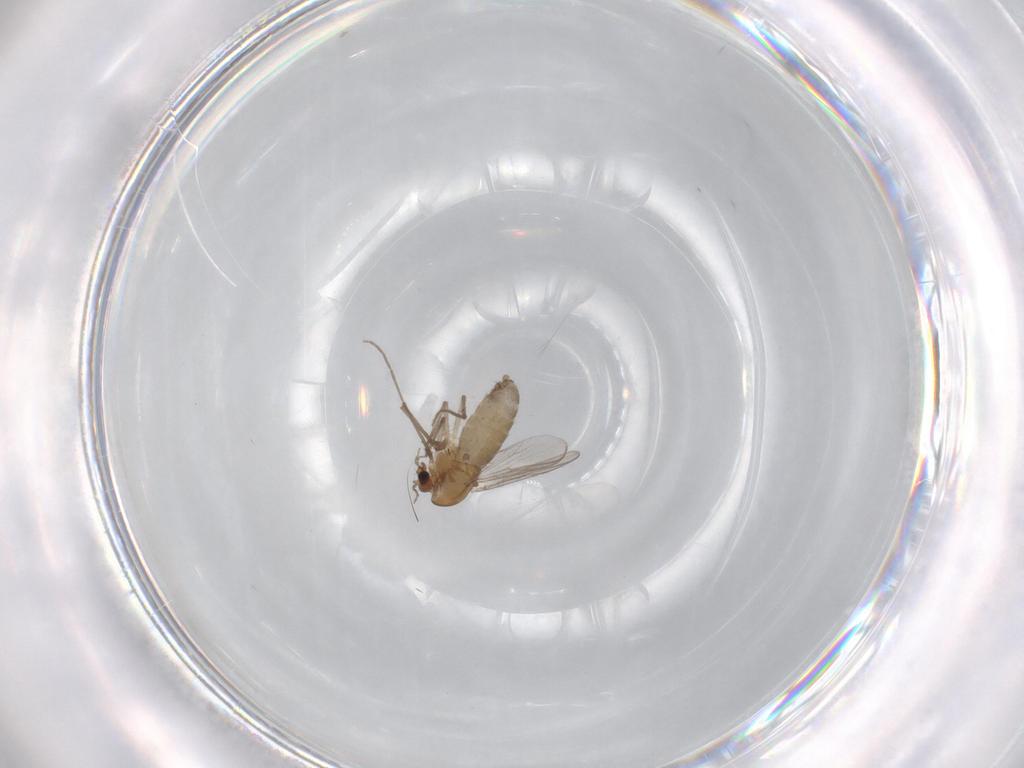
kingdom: Animalia
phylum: Arthropoda
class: Insecta
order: Diptera
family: Chironomidae
